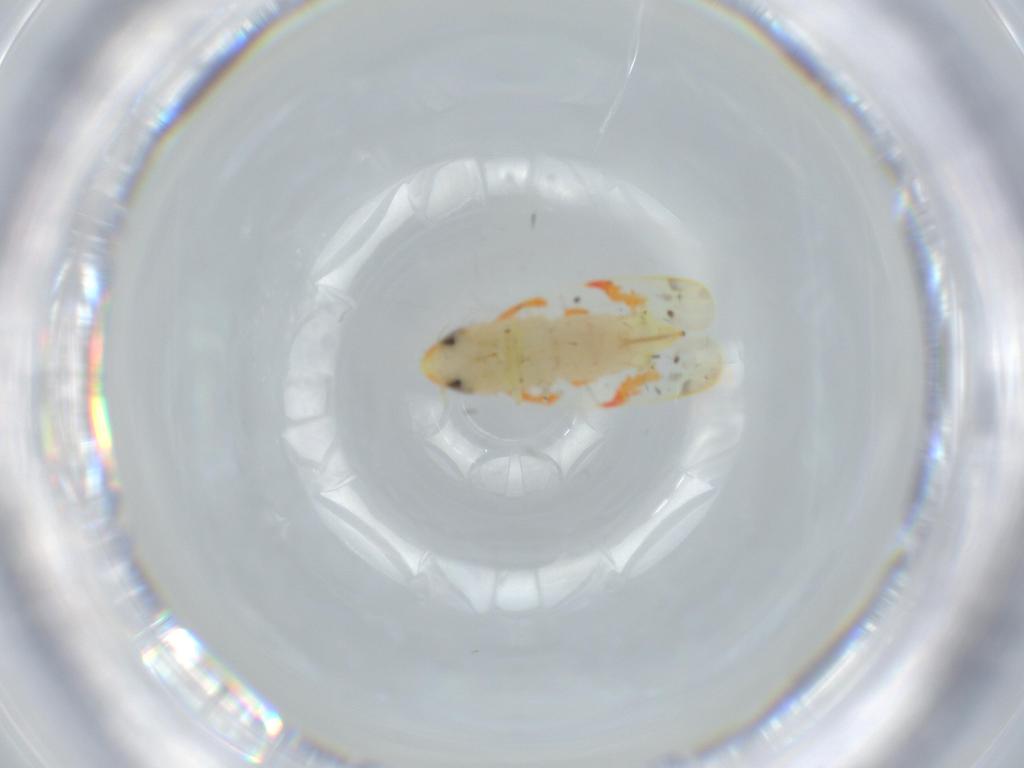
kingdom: Animalia
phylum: Arthropoda
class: Insecta
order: Hemiptera
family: Cicadellidae
